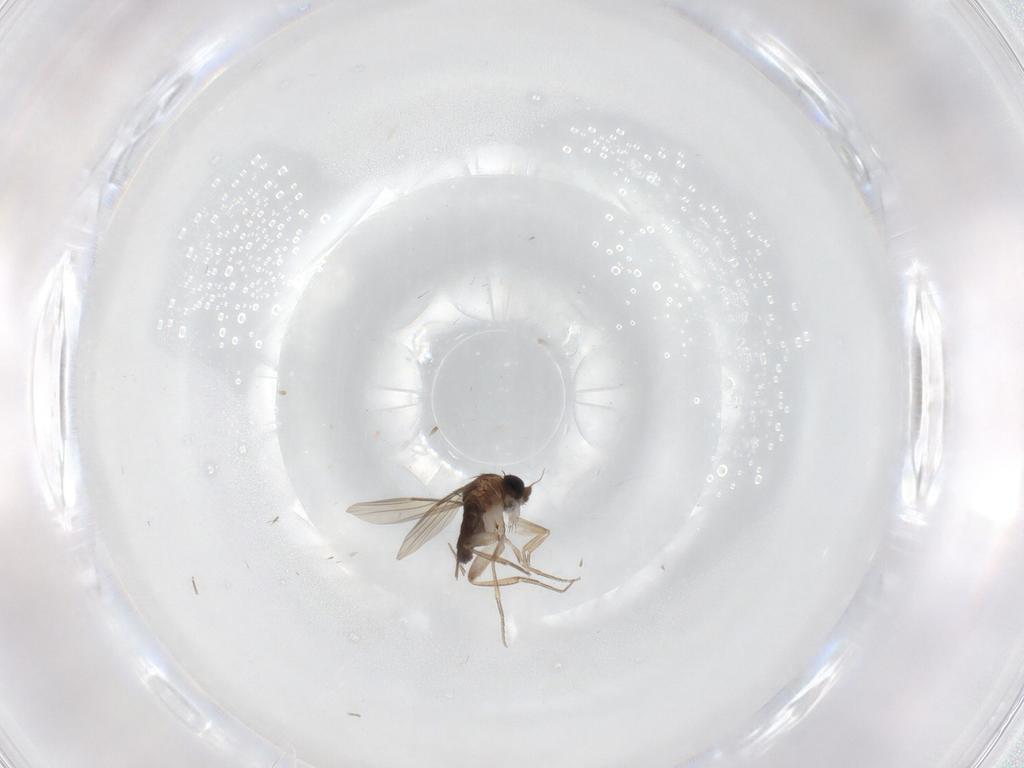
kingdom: Animalia
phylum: Arthropoda
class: Insecta
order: Diptera
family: Phoridae
